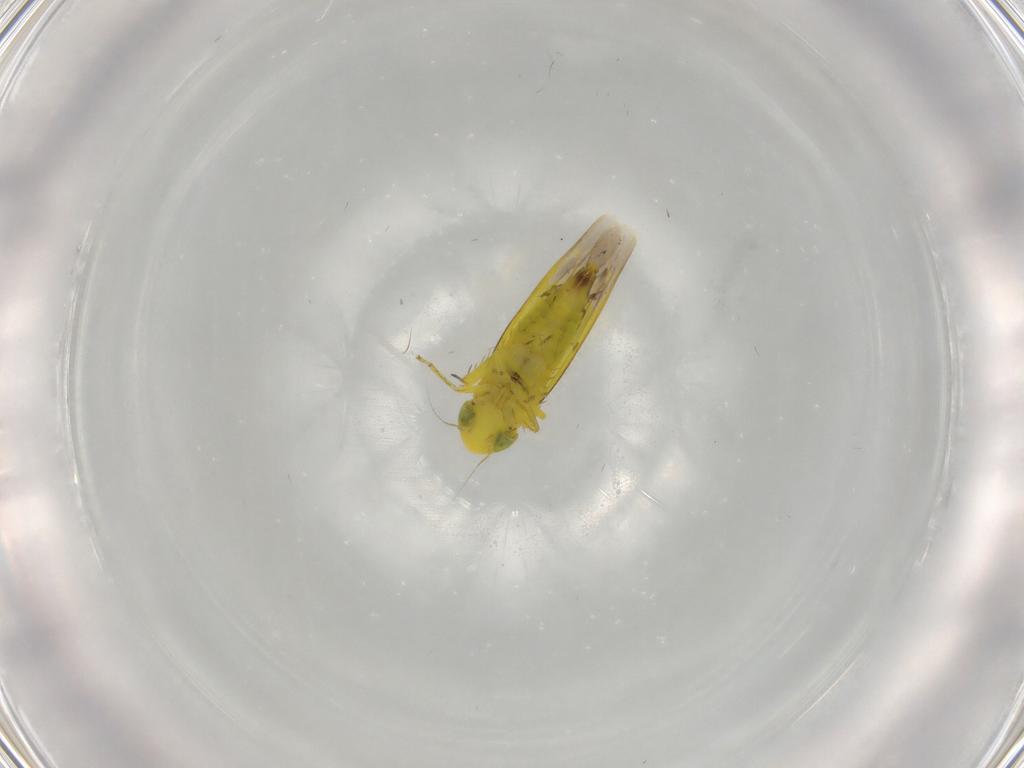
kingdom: Animalia
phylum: Arthropoda
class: Insecta
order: Hemiptera
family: Cicadellidae
